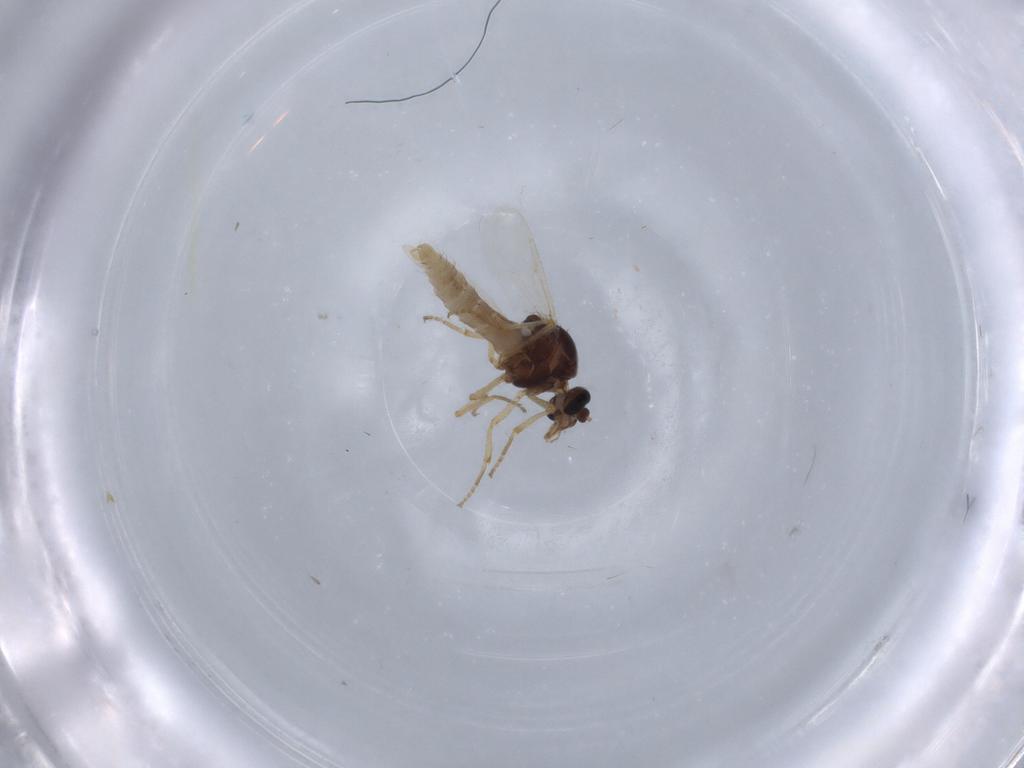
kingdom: Animalia
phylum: Arthropoda
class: Insecta
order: Diptera
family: Ceratopogonidae
